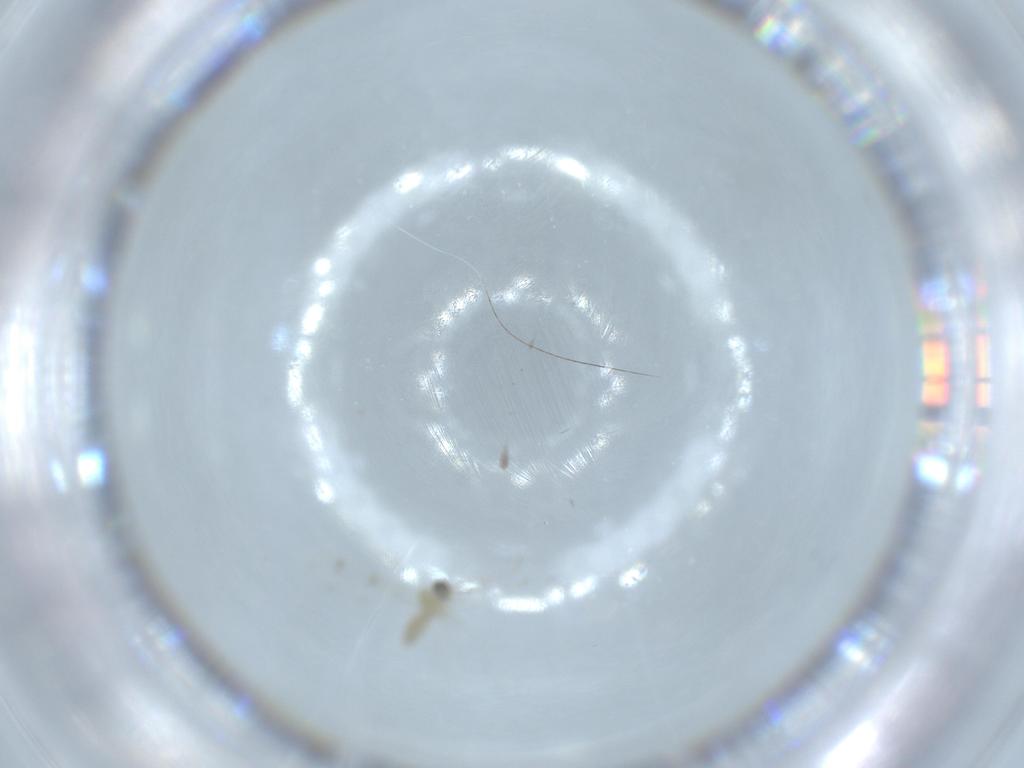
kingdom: Animalia
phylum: Arthropoda
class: Insecta
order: Diptera
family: Cecidomyiidae
